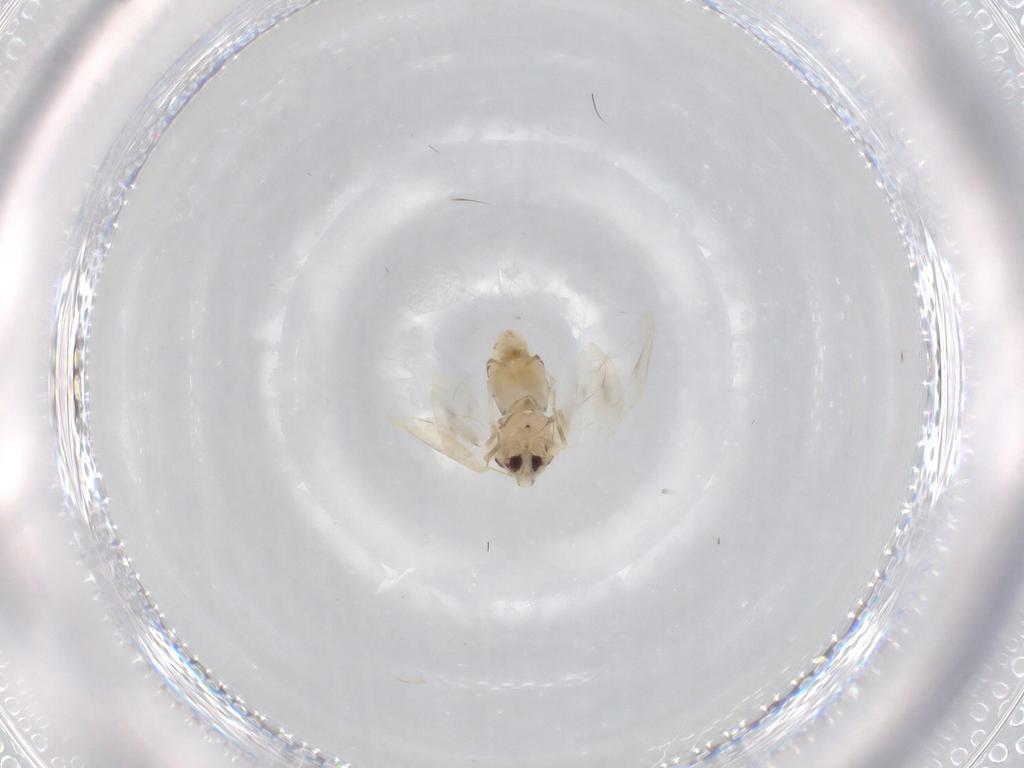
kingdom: Animalia
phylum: Arthropoda
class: Insecta
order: Hemiptera
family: Aleyrodidae
